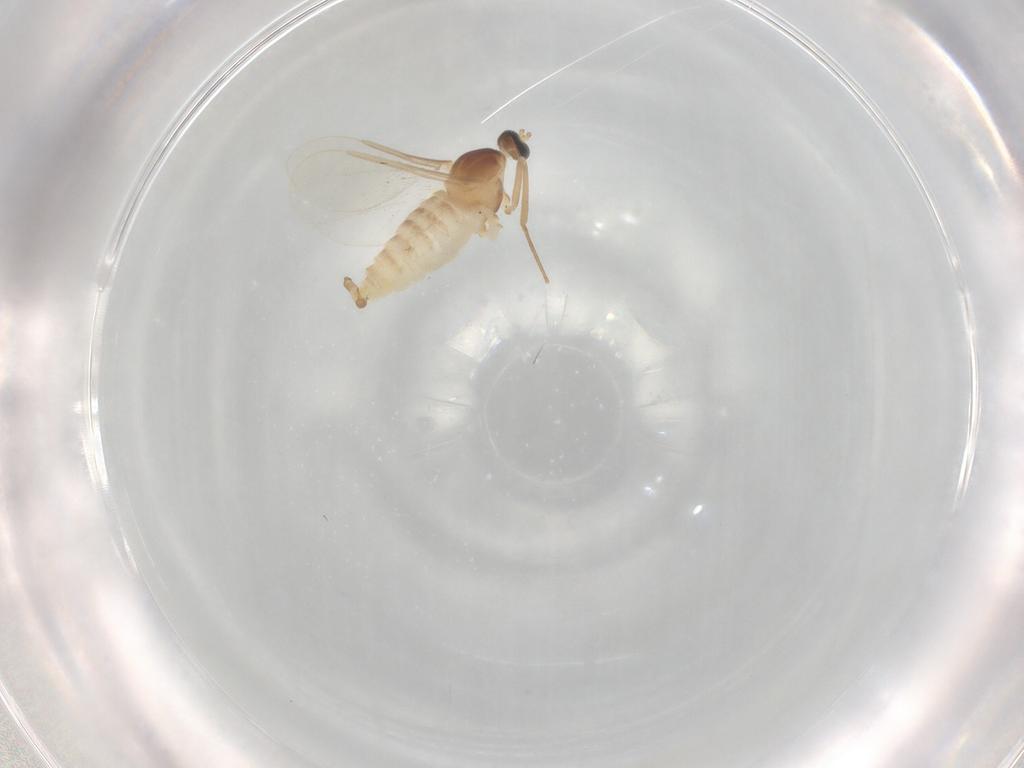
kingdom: Animalia
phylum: Arthropoda
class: Insecta
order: Diptera
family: Cecidomyiidae
